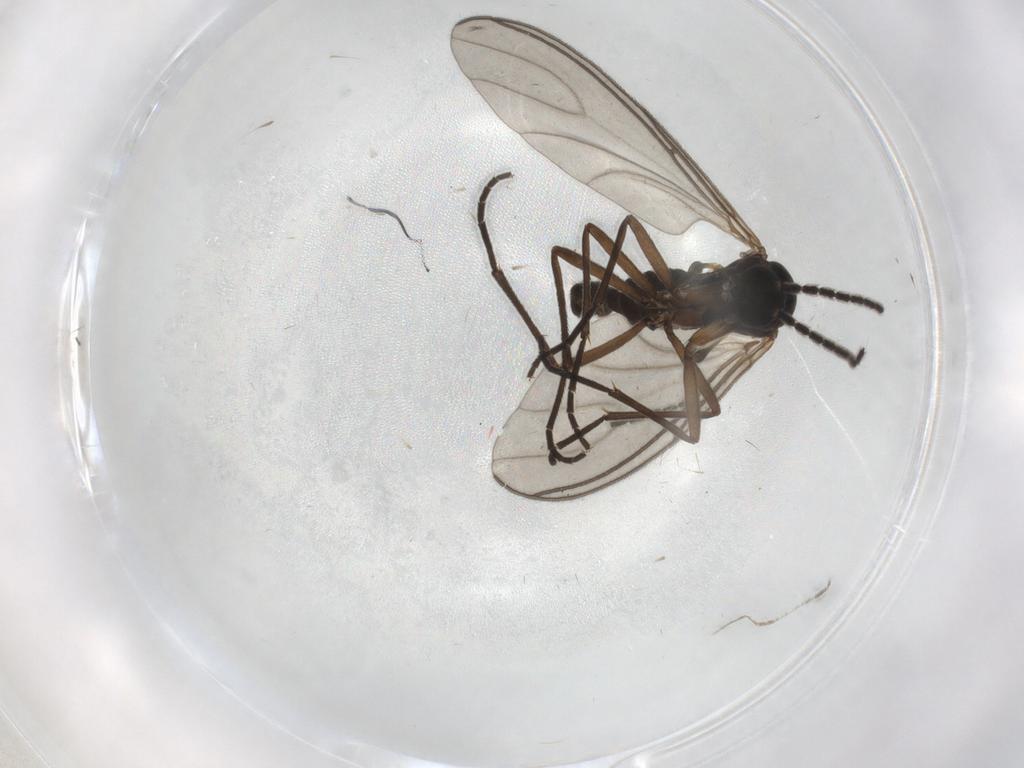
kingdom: Animalia
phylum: Arthropoda
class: Insecta
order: Diptera
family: Sciaridae
